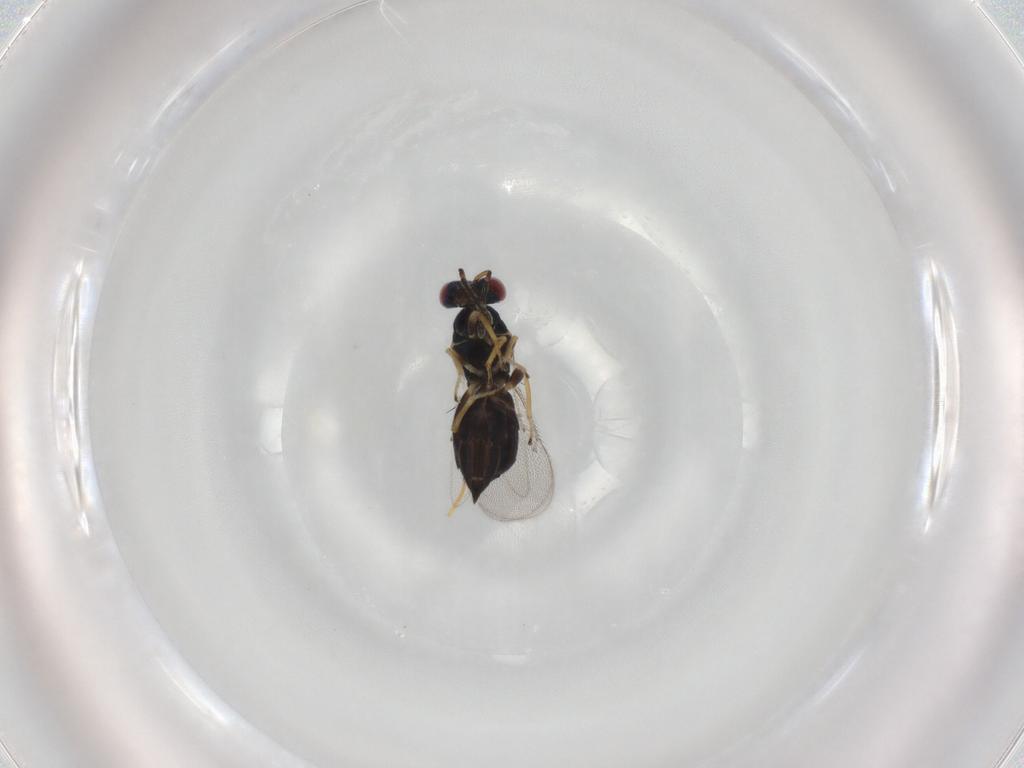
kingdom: Animalia
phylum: Arthropoda
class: Insecta
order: Hymenoptera
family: Eulophidae
